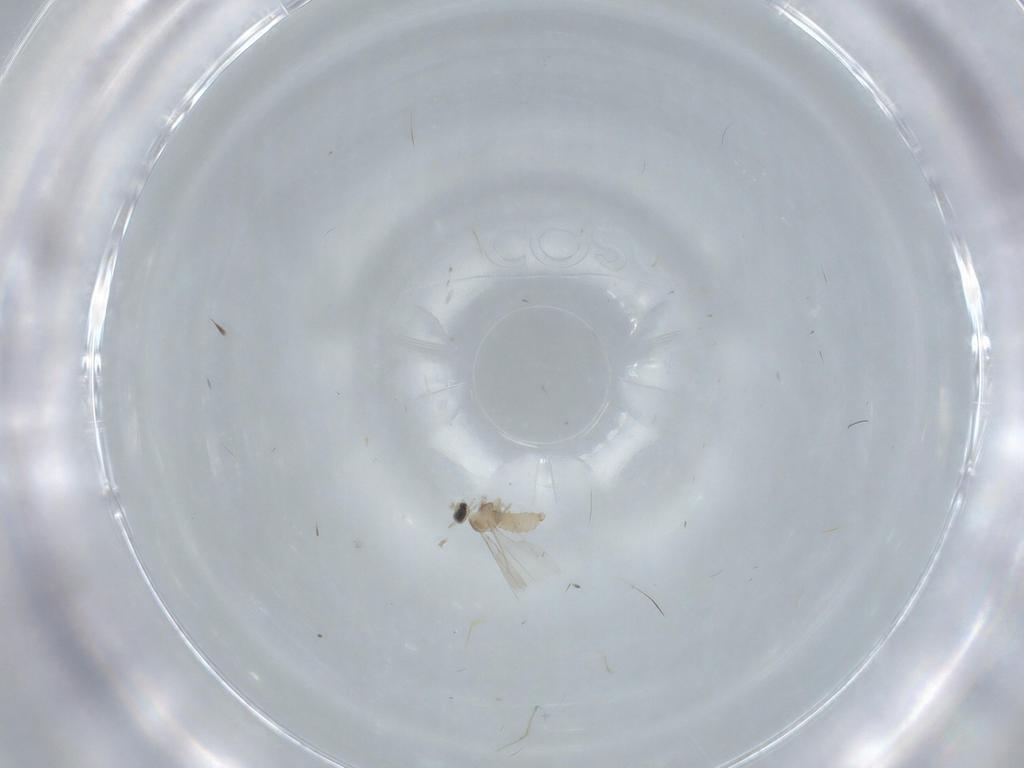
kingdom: Animalia
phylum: Arthropoda
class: Insecta
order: Diptera
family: Cecidomyiidae
